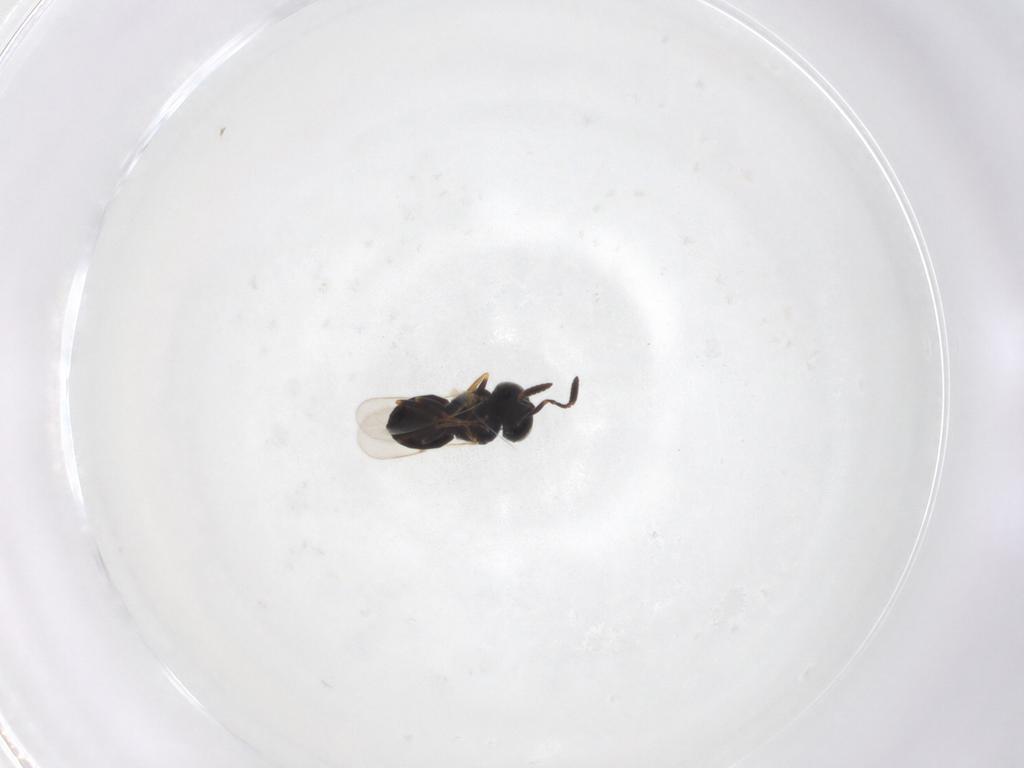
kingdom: Animalia
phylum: Arthropoda
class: Insecta
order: Hymenoptera
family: Scelionidae
